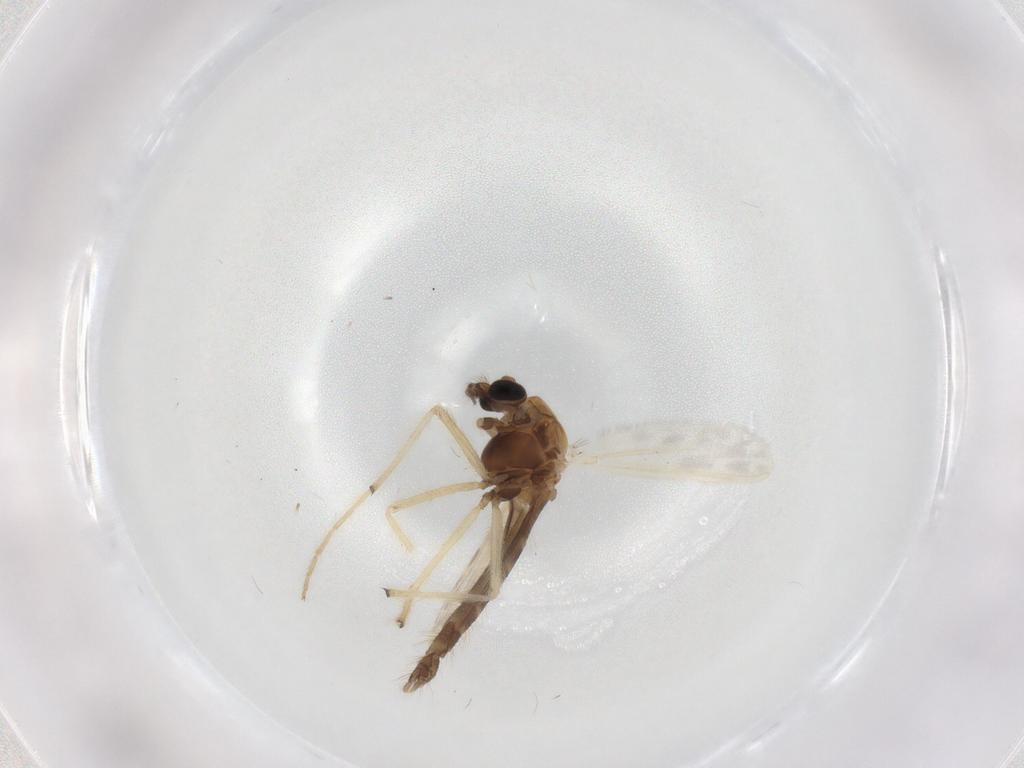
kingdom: Animalia
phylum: Arthropoda
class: Insecta
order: Diptera
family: Chironomidae
